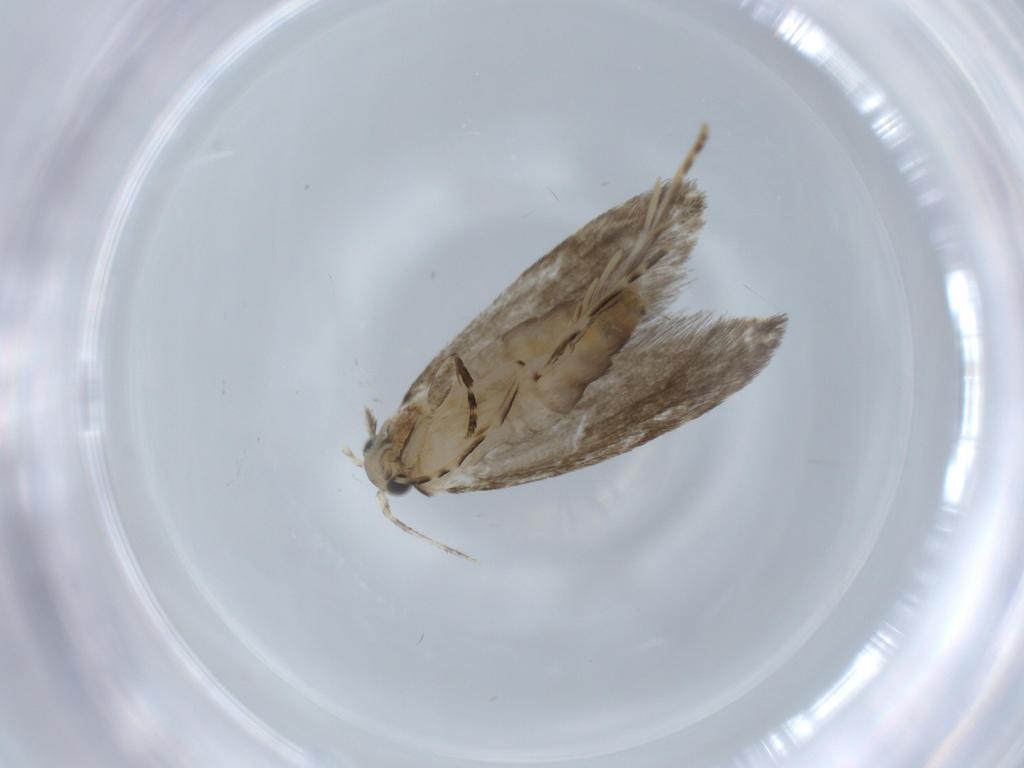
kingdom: Animalia
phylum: Arthropoda
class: Insecta
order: Lepidoptera
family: Tineidae
